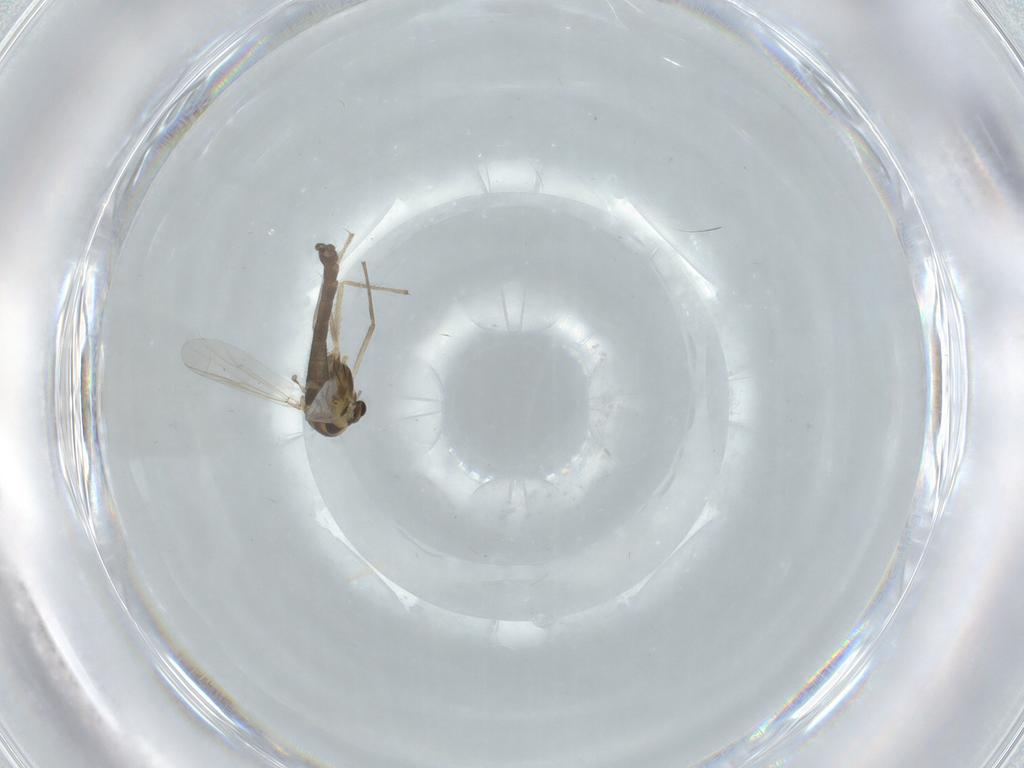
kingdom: Animalia
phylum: Arthropoda
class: Insecta
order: Diptera
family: Chironomidae
